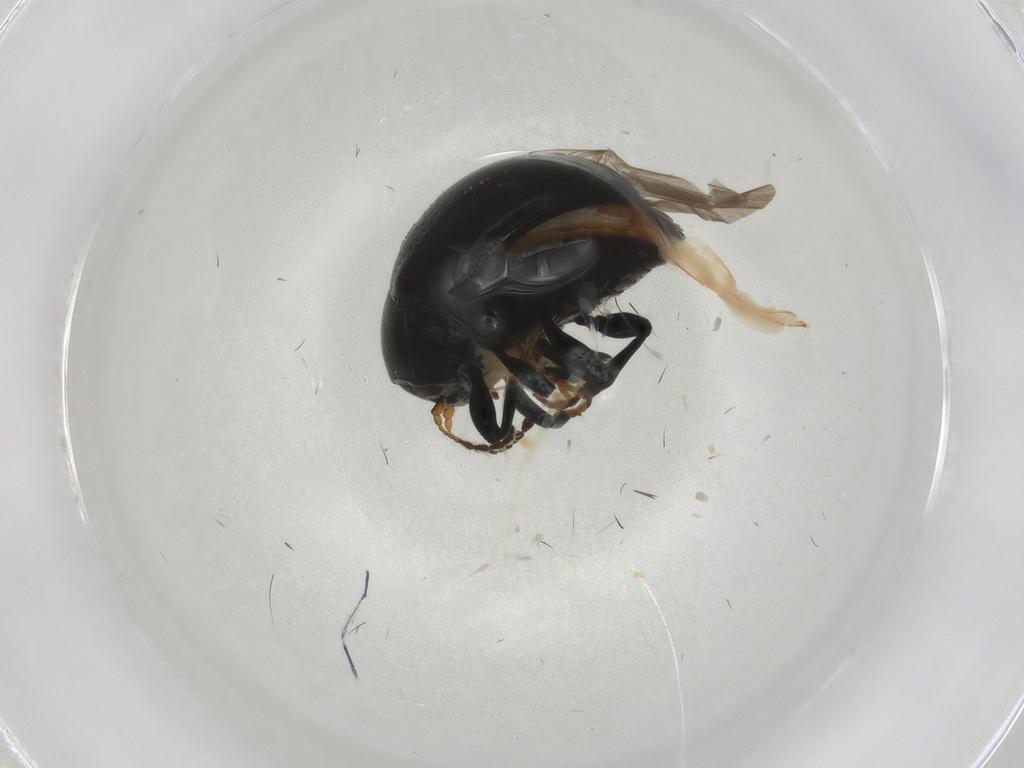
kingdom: Animalia
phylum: Arthropoda
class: Insecta
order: Coleoptera
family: Chrysomelidae
